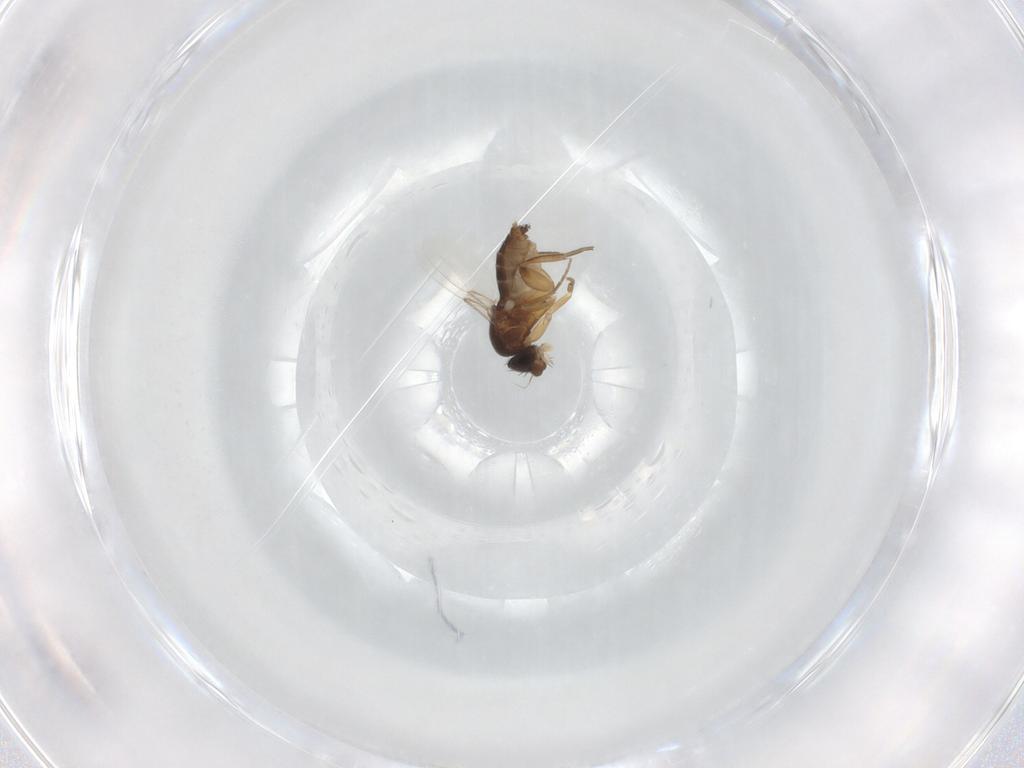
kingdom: Animalia
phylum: Arthropoda
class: Insecta
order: Diptera
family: Phoridae
